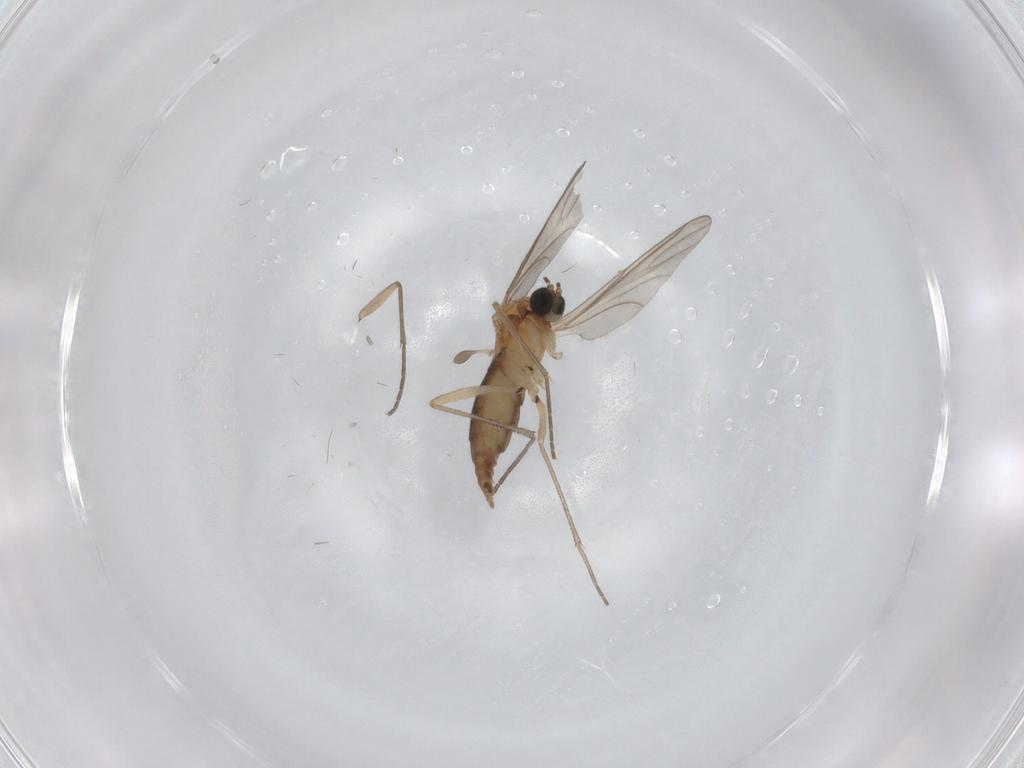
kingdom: Animalia
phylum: Arthropoda
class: Insecta
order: Diptera
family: Sciaridae
